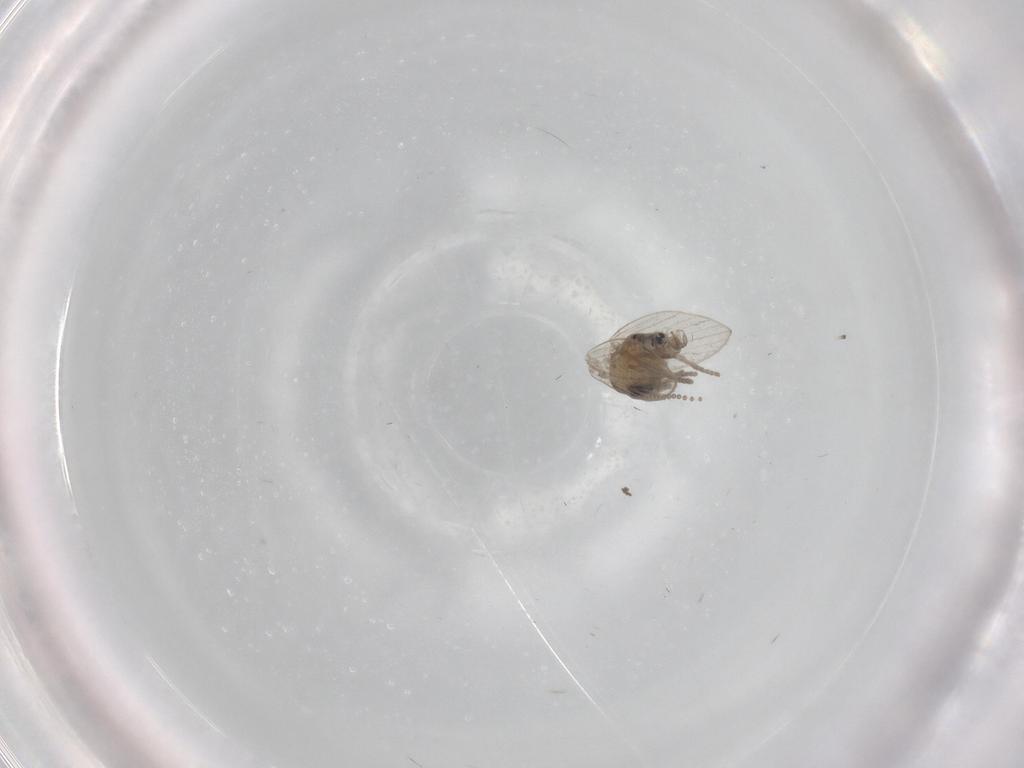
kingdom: Animalia
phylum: Arthropoda
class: Insecta
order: Diptera
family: Psychodidae
